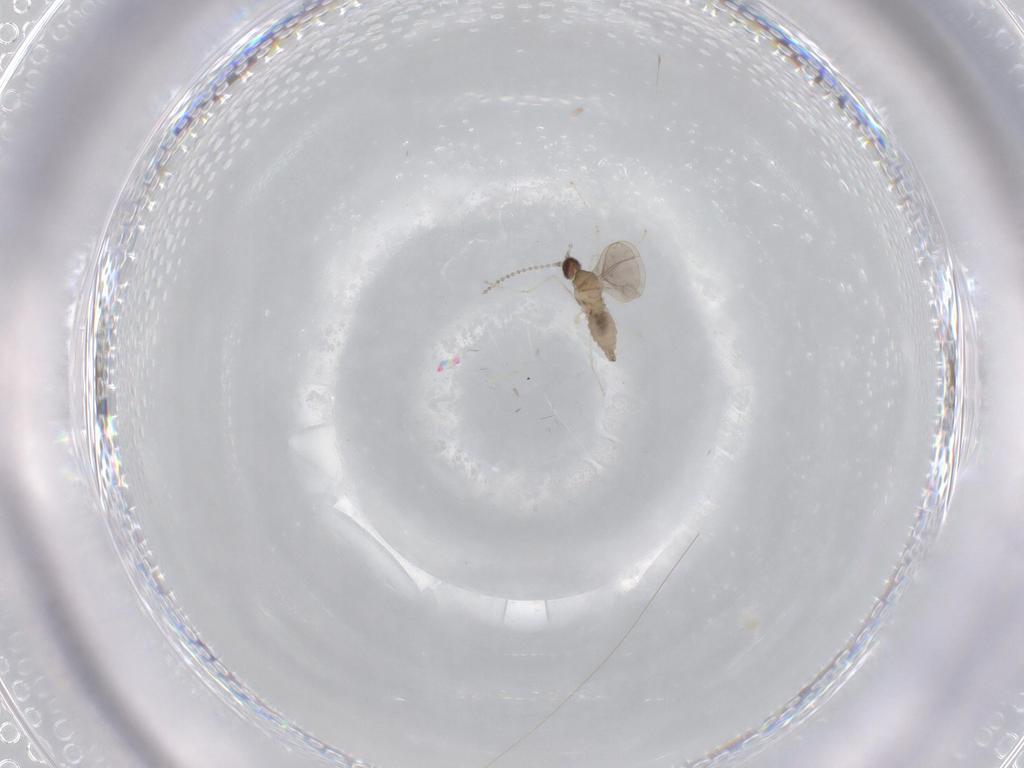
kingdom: Animalia
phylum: Arthropoda
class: Insecta
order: Diptera
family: Cecidomyiidae
